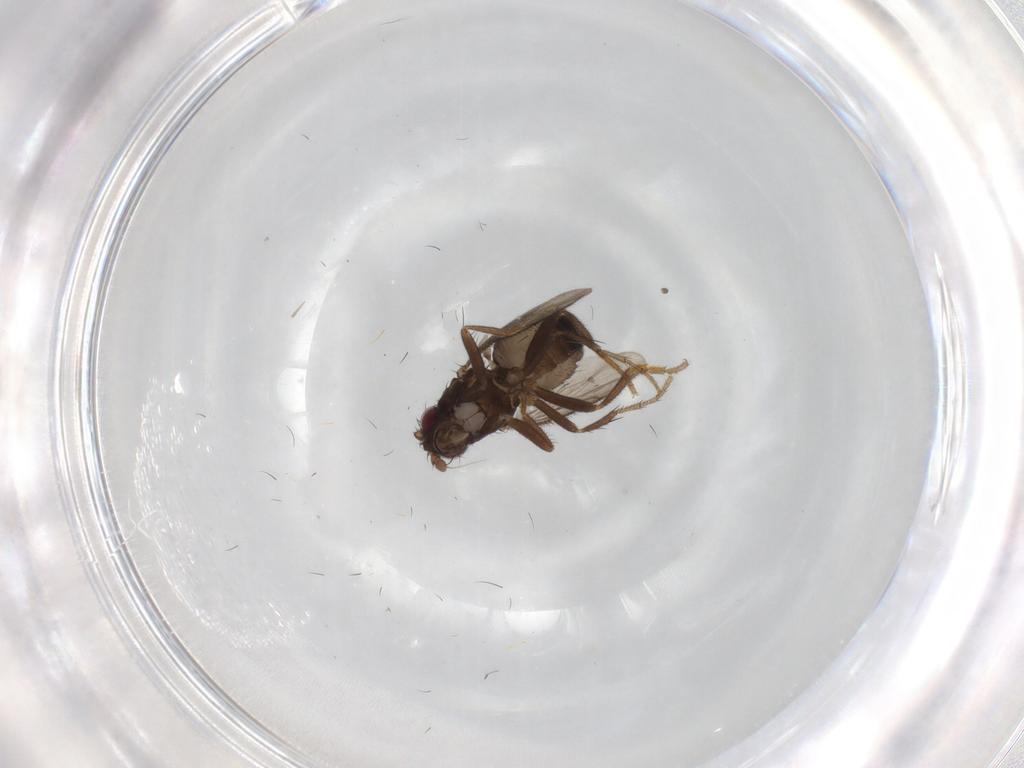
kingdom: Animalia
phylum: Arthropoda
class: Insecta
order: Diptera
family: Sphaeroceridae
